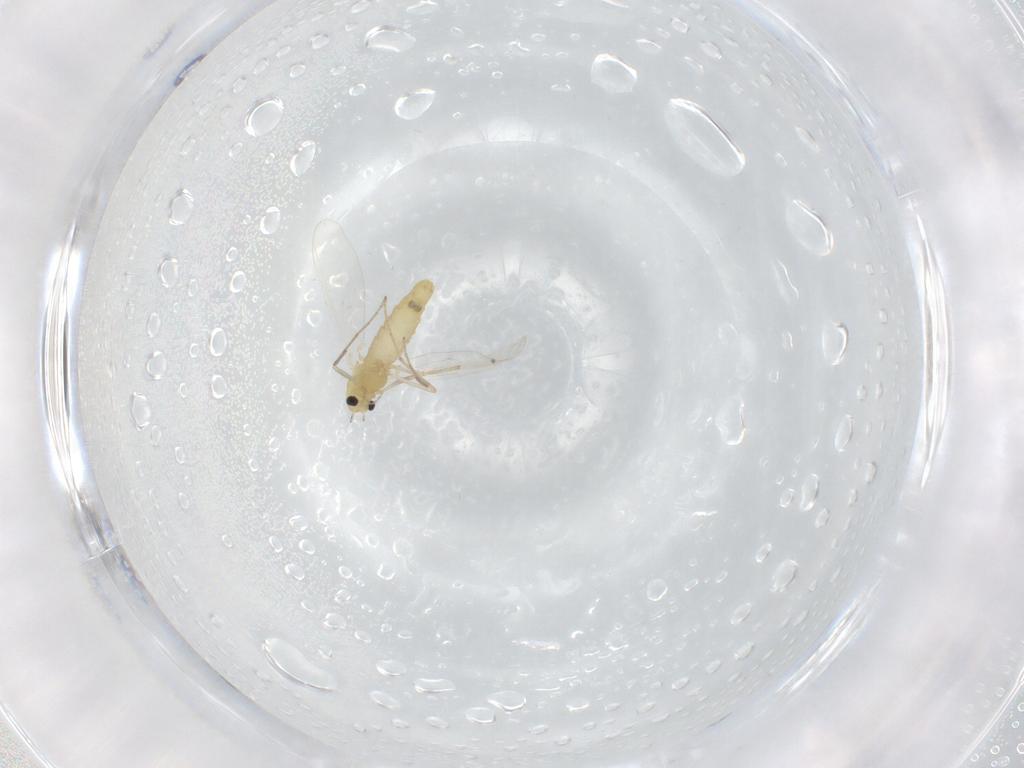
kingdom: Animalia
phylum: Arthropoda
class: Insecta
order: Diptera
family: Chironomidae
